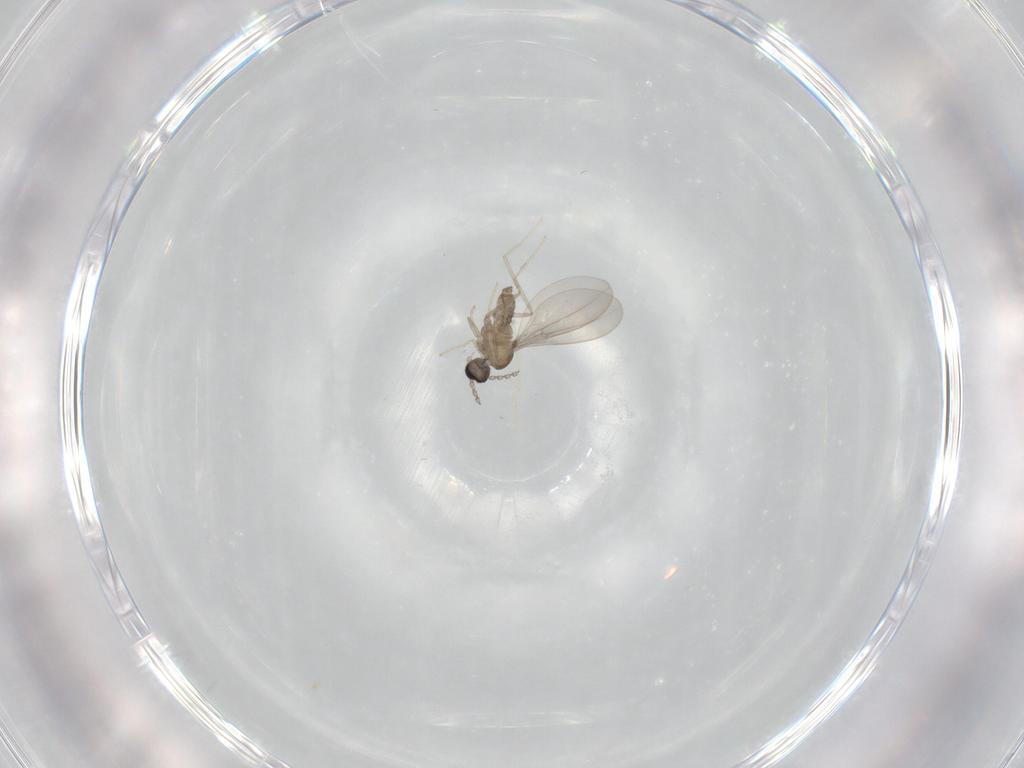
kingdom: Animalia
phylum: Arthropoda
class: Insecta
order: Diptera
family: Mycetophilidae
